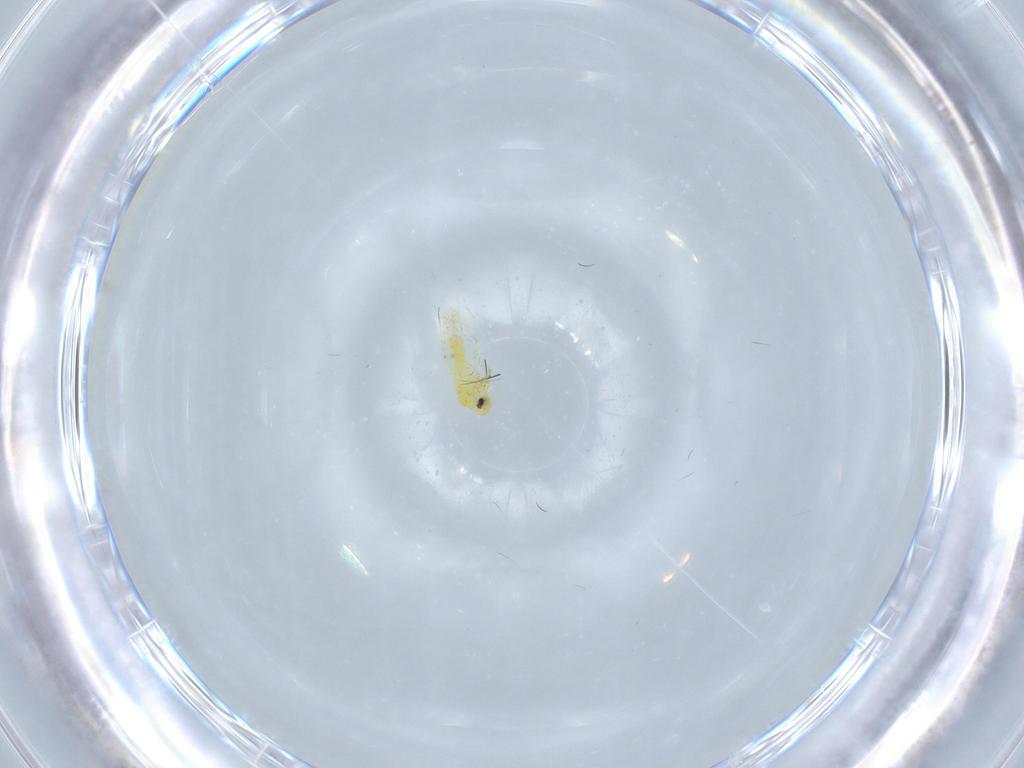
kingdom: Animalia
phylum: Arthropoda
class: Insecta
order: Hemiptera
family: Aleyrodidae
